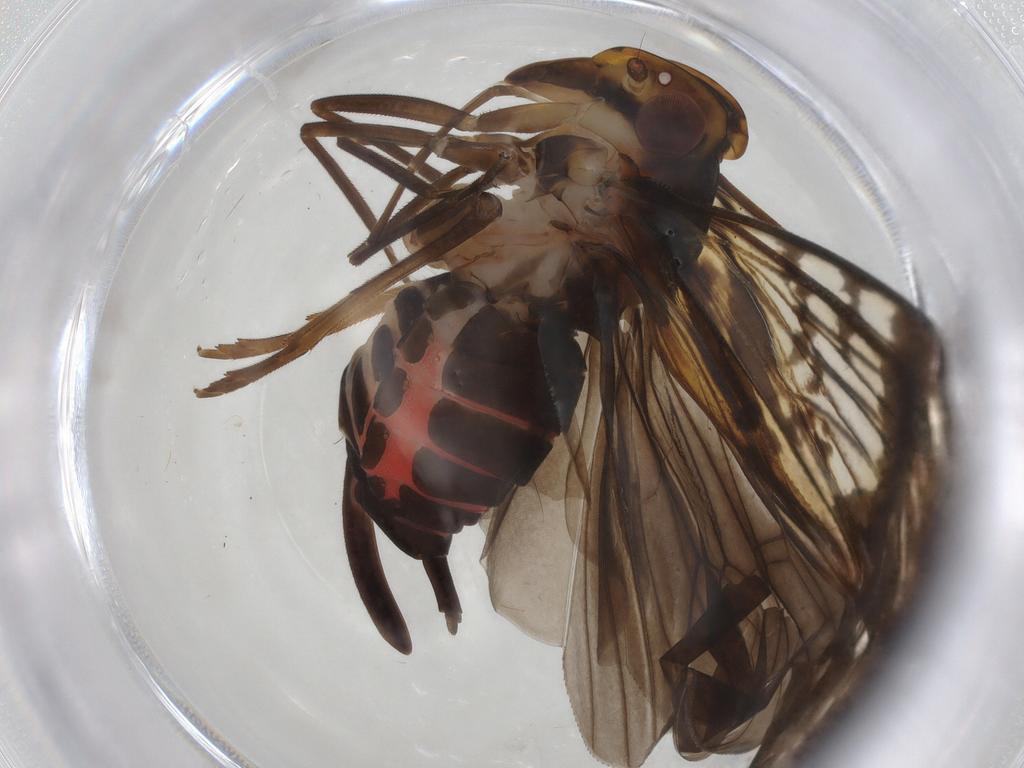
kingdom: Animalia
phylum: Arthropoda
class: Insecta
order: Hemiptera
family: Cixiidae
